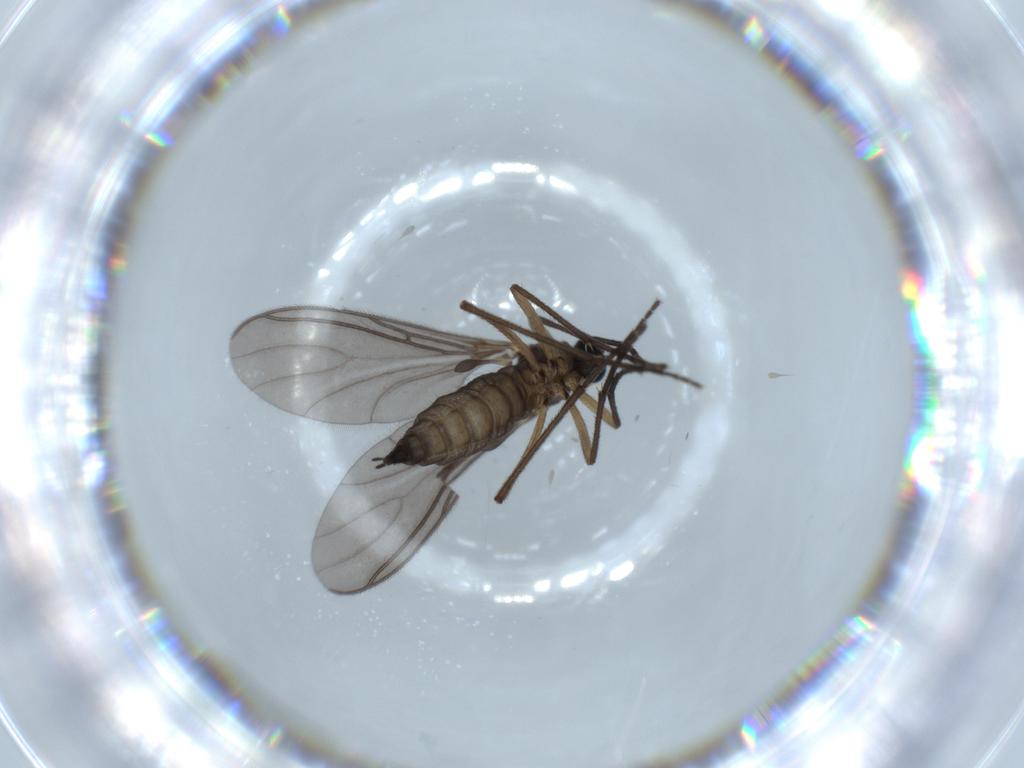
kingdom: Animalia
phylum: Arthropoda
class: Insecta
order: Diptera
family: Sciaridae
